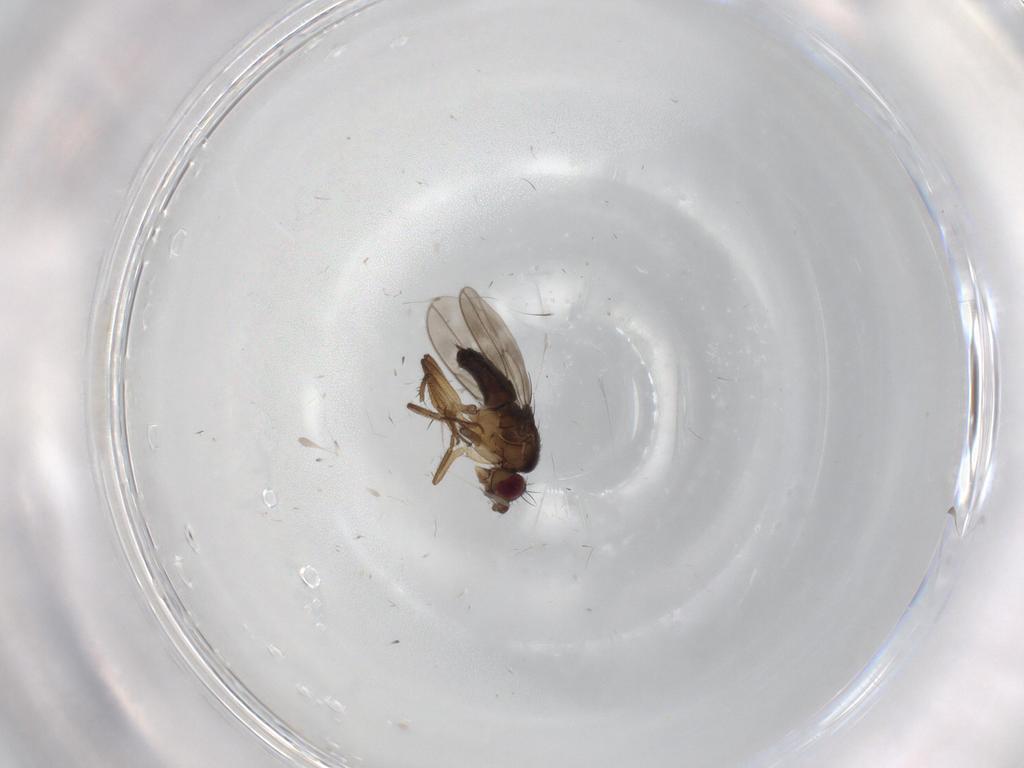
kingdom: Animalia
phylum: Arthropoda
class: Insecta
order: Diptera
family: Sphaeroceridae
